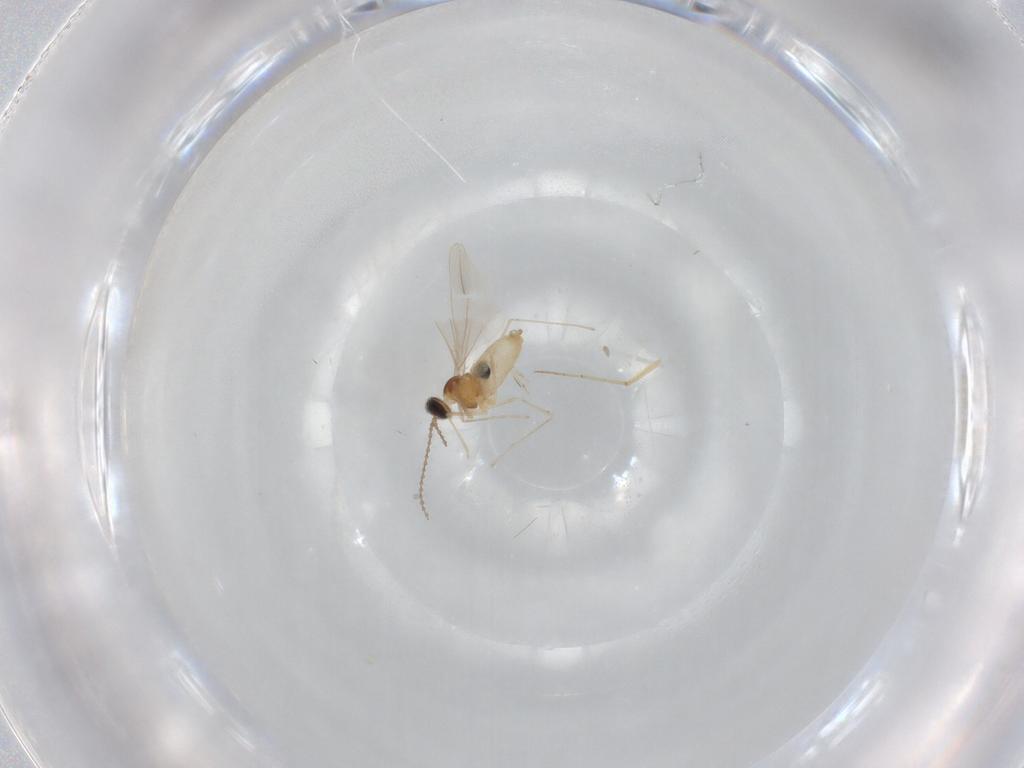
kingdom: Animalia
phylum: Arthropoda
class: Insecta
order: Diptera
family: Cecidomyiidae
